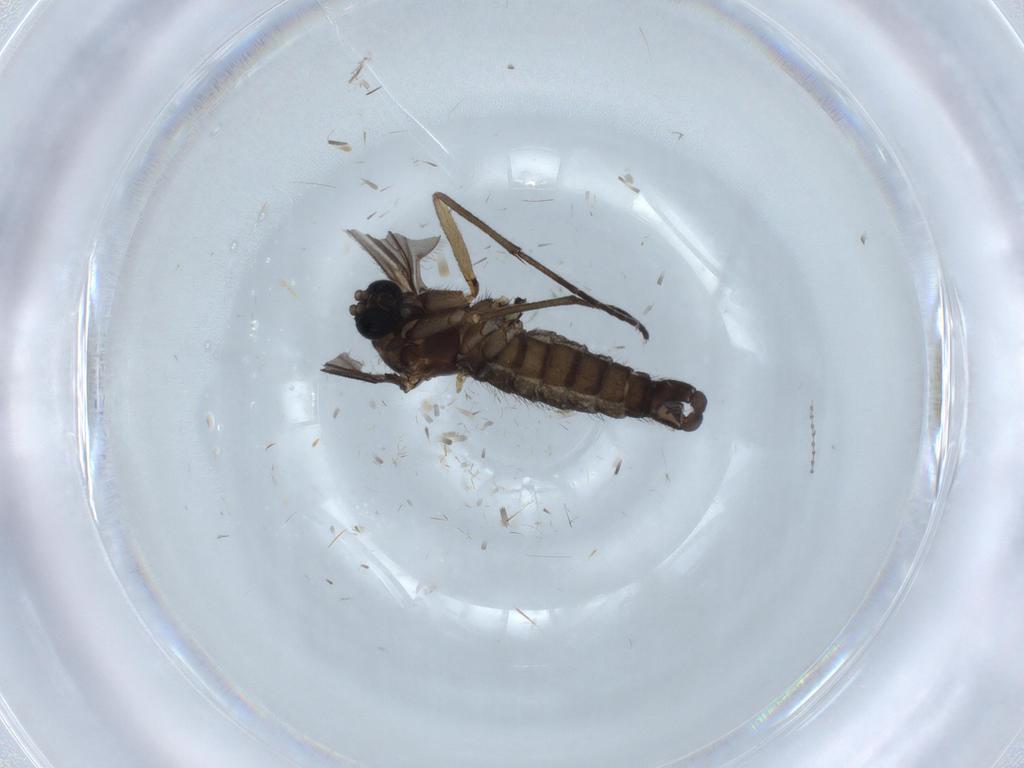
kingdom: Animalia
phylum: Arthropoda
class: Insecta
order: Diptera
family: Sciaridae
